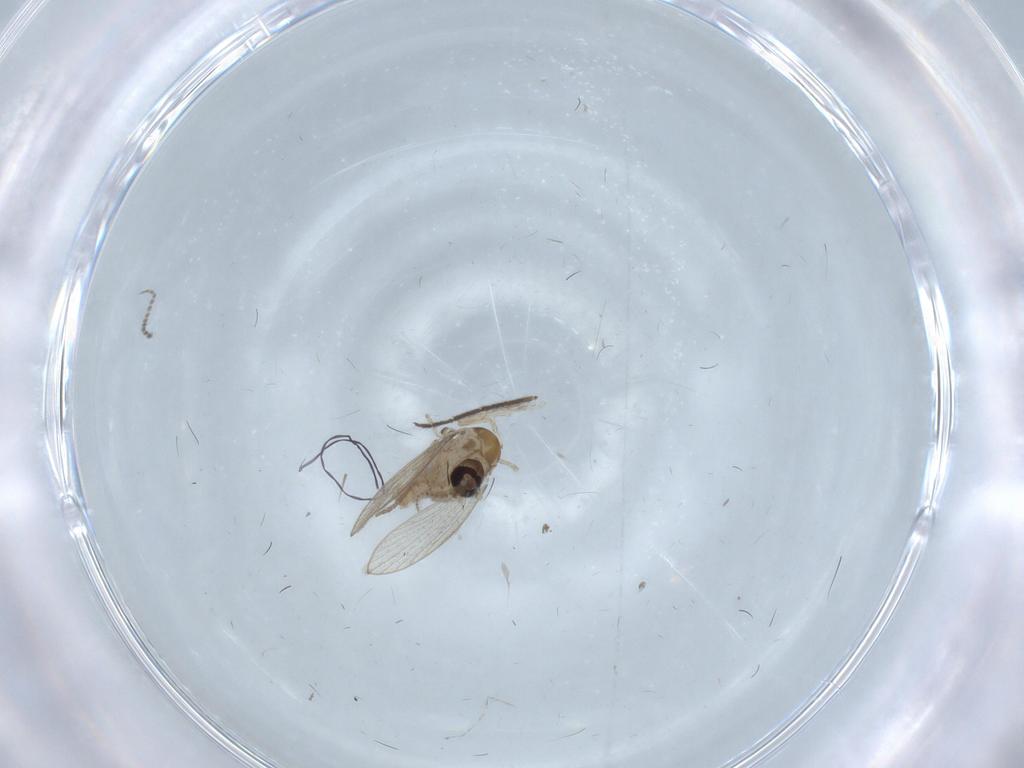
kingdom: Animalia
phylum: Arthropoda
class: Insecta
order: Diptera
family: Psychodidae
